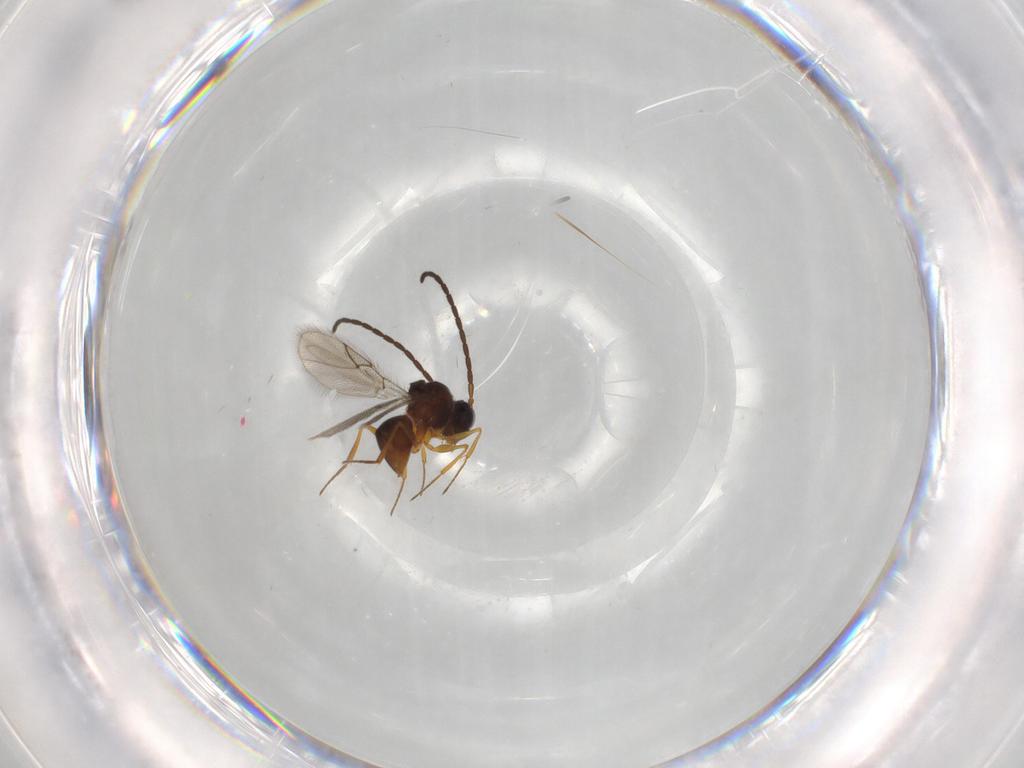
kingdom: Animalia
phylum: Arthropoda
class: Insecta
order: Hymenoptera
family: Figitidae
